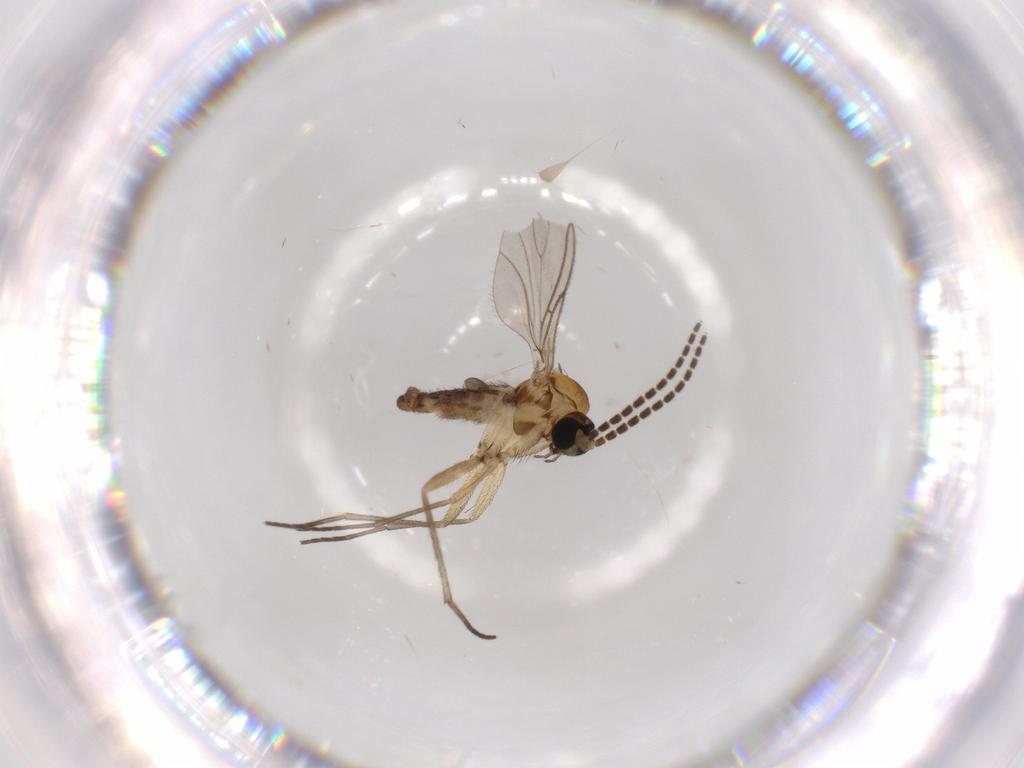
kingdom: Animalia
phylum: Arthropoda
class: Insecta
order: Diptera
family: Sciaridae
